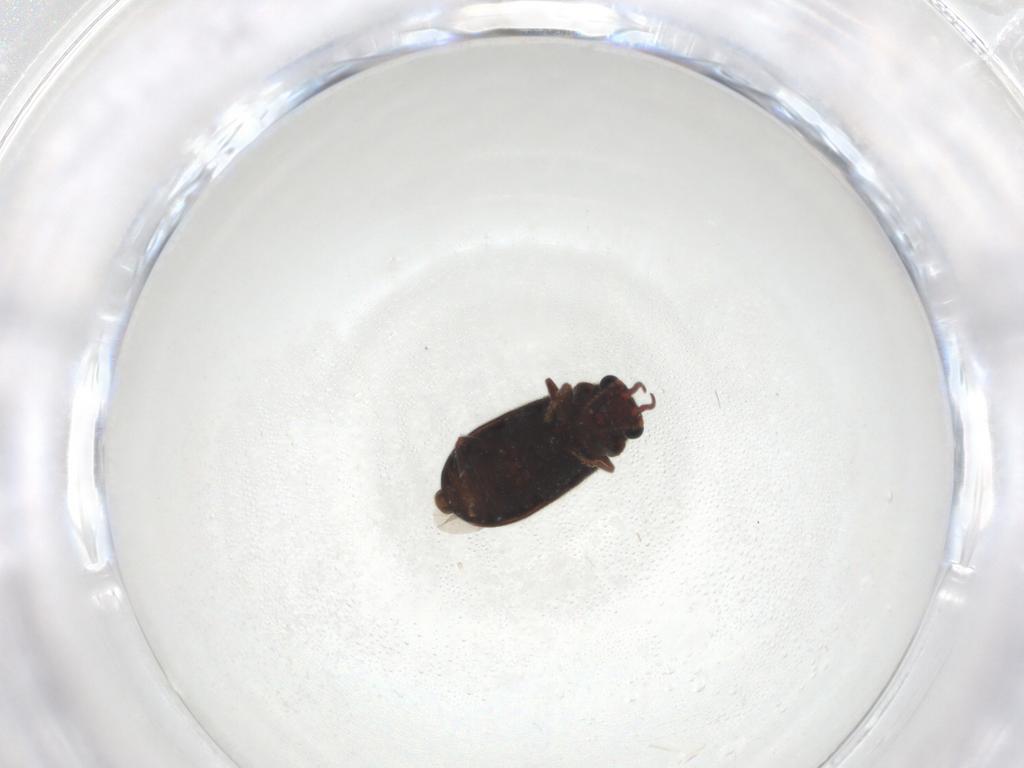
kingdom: Animalia
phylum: Arthropoda
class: Insecta
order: Coleoptera
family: Ptinidae
